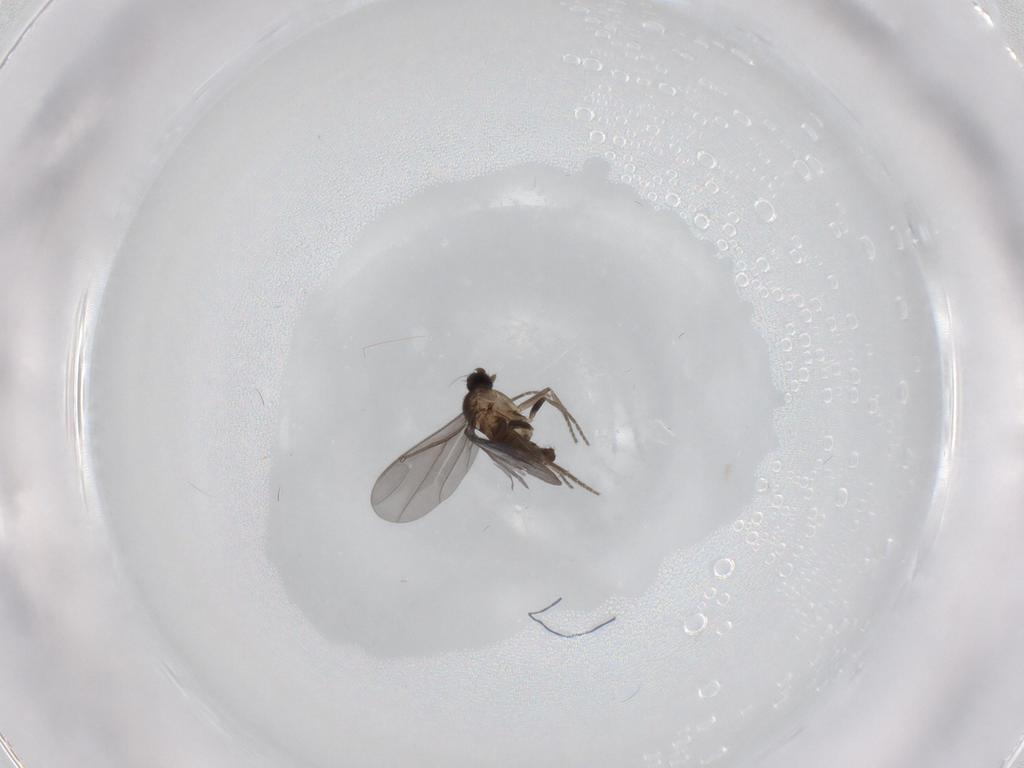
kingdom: Animalia
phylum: Arthropoda
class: Insecta
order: Diptera
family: Phoridae
